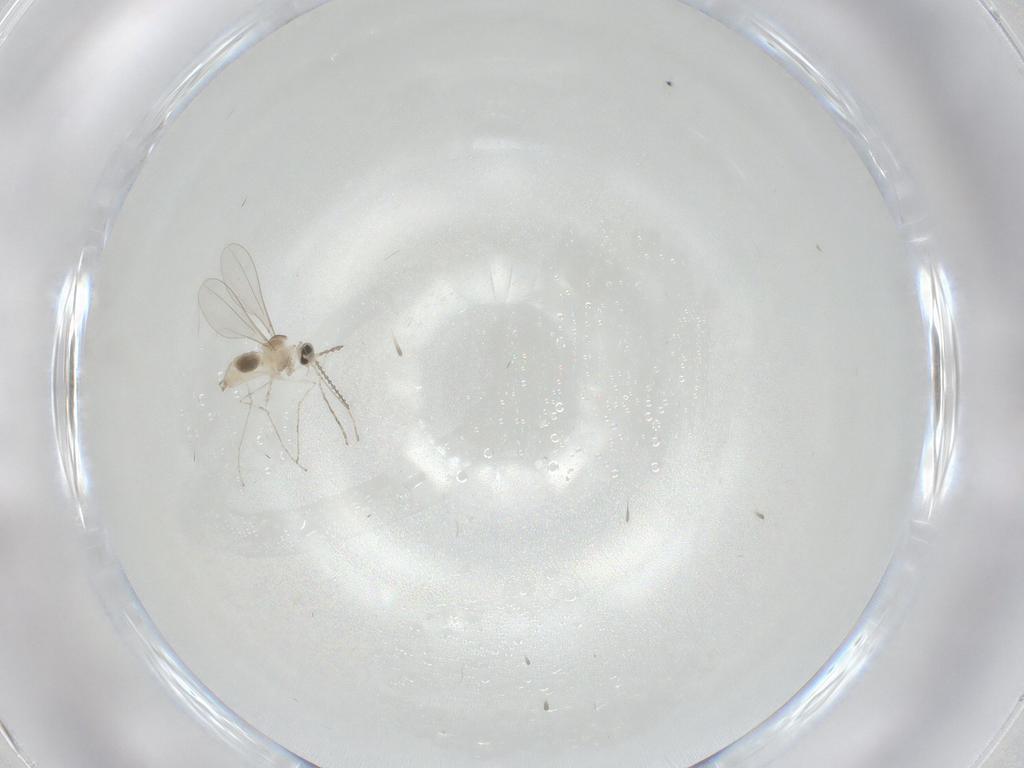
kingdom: Animalia
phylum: Arthropoda
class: Insecta
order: Diptera
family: Cecidomyiidae
